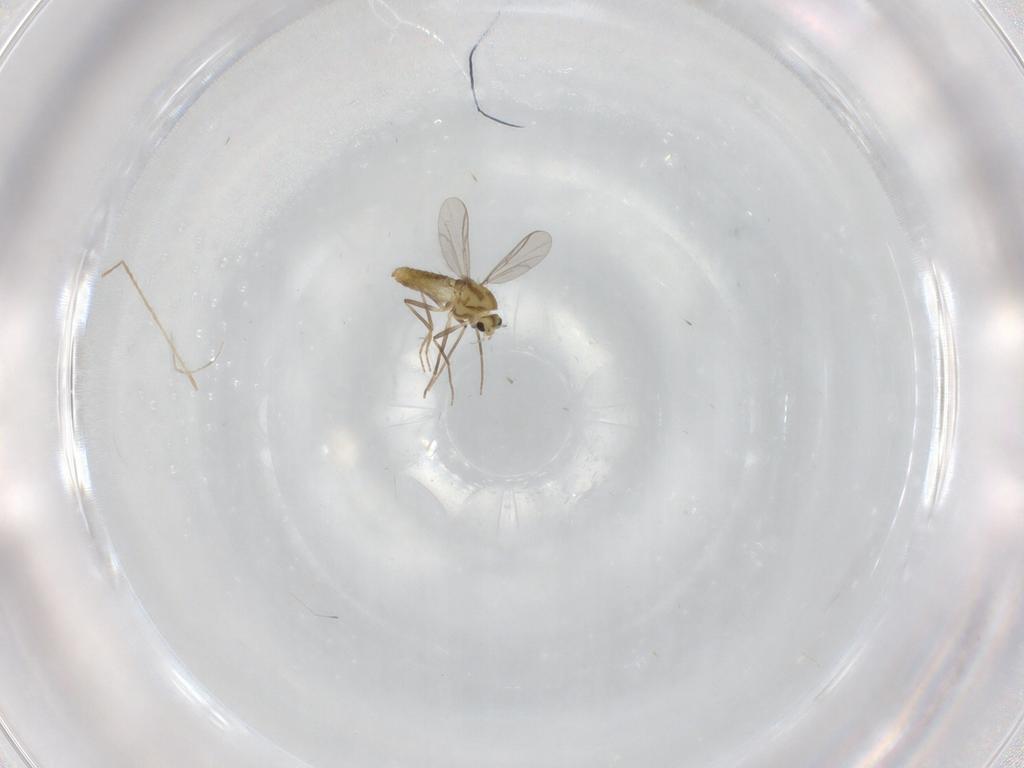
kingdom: Animalia
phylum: Arthropoda
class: Insecta
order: Diptera
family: Chironomidae
